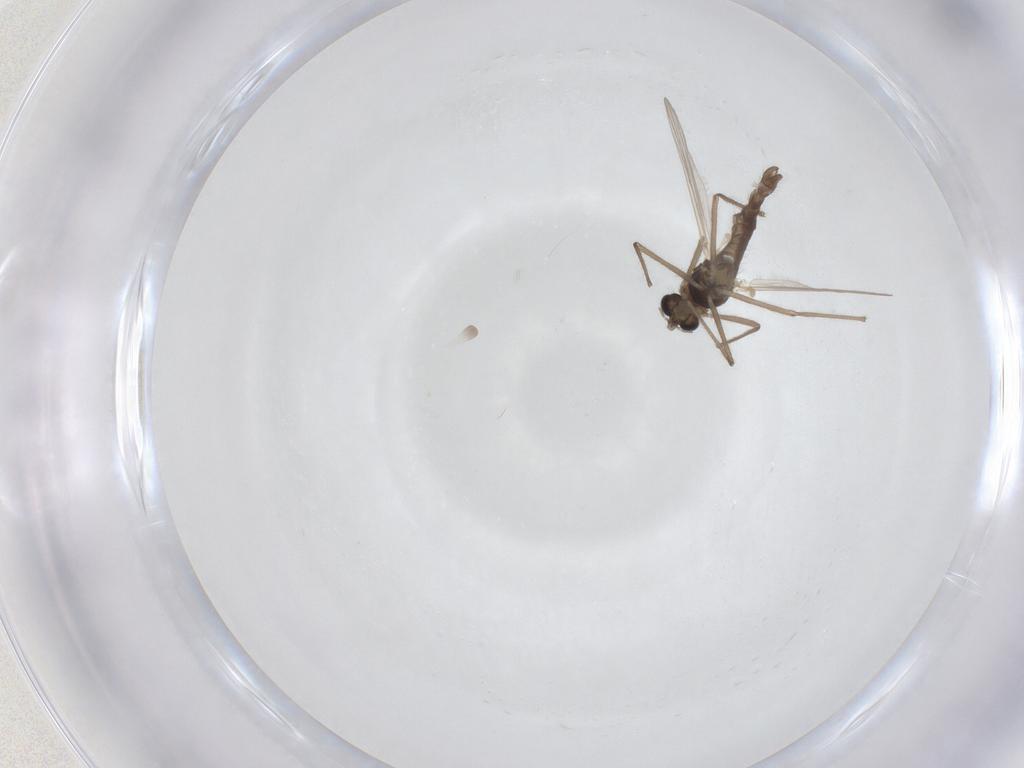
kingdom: Animalia
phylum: Arthropoda
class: Insecta
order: Diptera
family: Chironomidae
